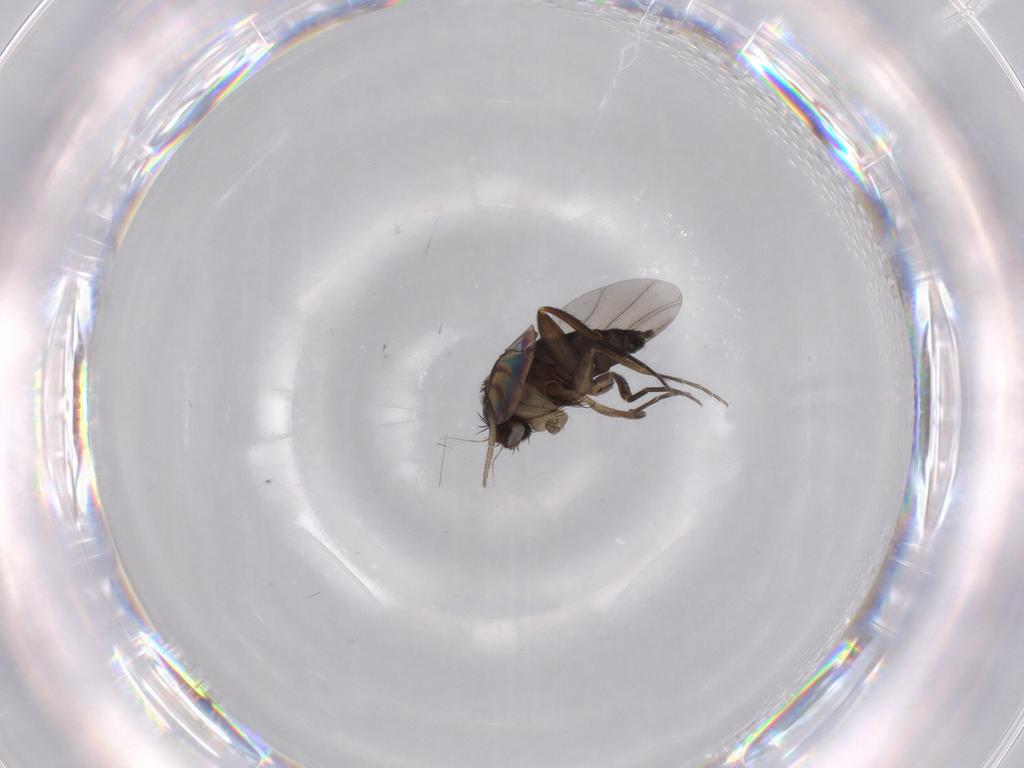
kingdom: Animalia
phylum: Arthropoda
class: Insecta
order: Diptera
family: Phoridae
